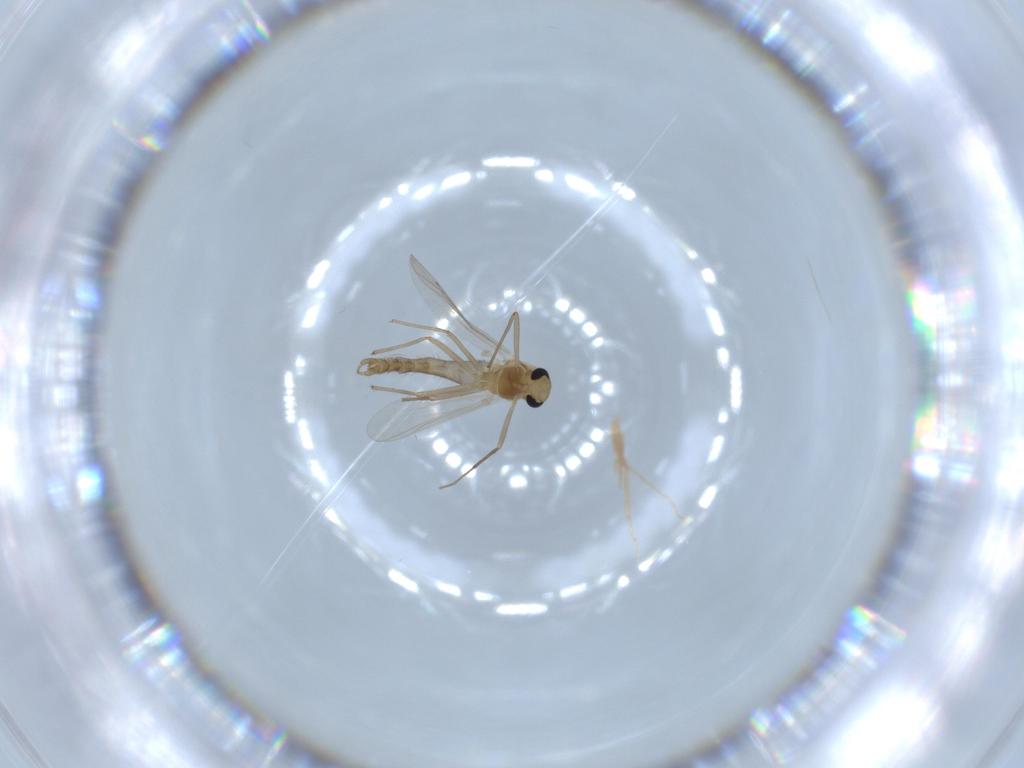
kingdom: Animalia
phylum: Arthropoda
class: Insecta
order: Diptera
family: Chironomidae
